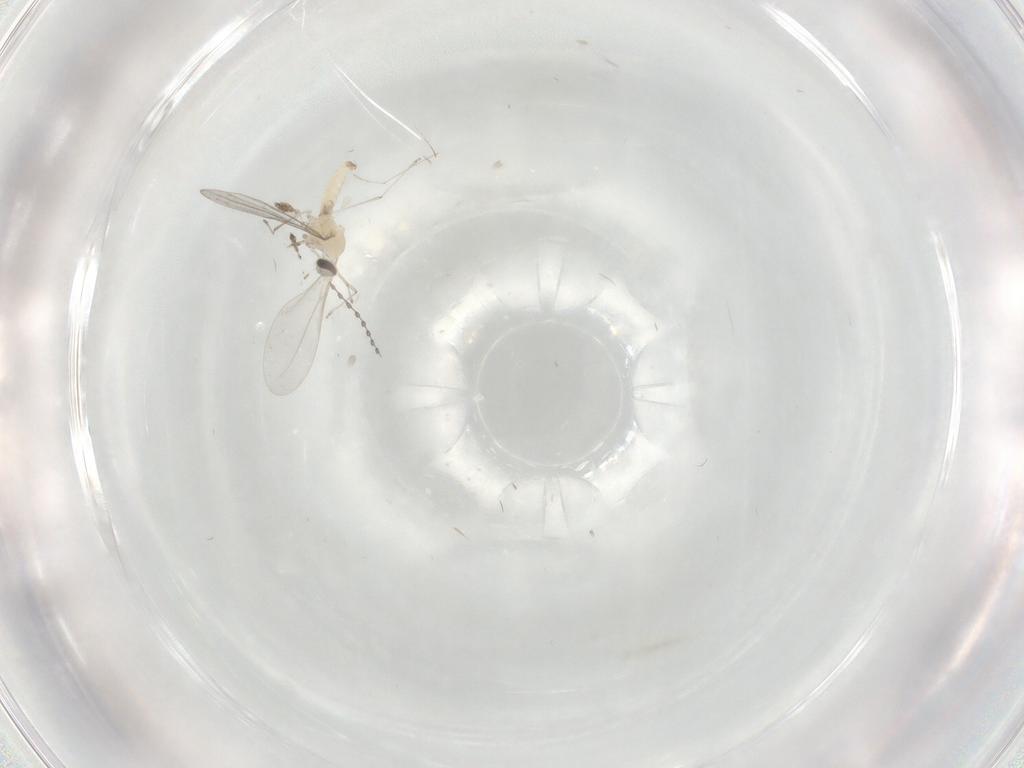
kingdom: Animalia
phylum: Arthropoda
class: Insecta
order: Diptera
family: Cecidomyiidae
